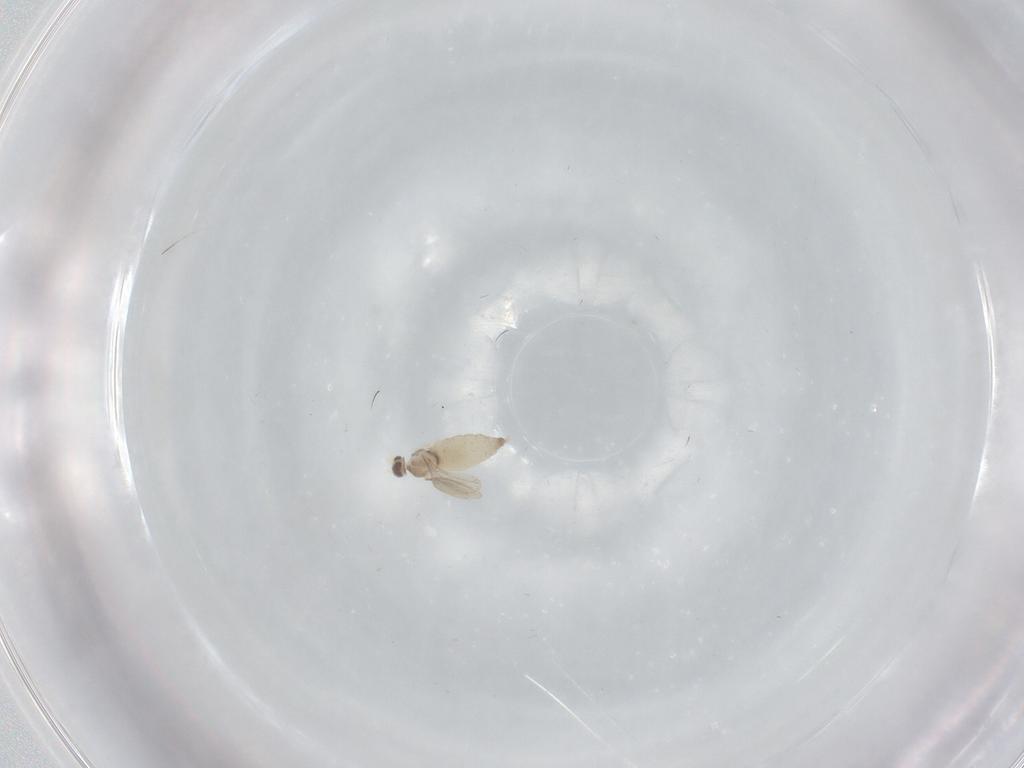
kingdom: Animalia
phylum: Arthropoda
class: Insecta
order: Diptera
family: Cecidomyiidae
